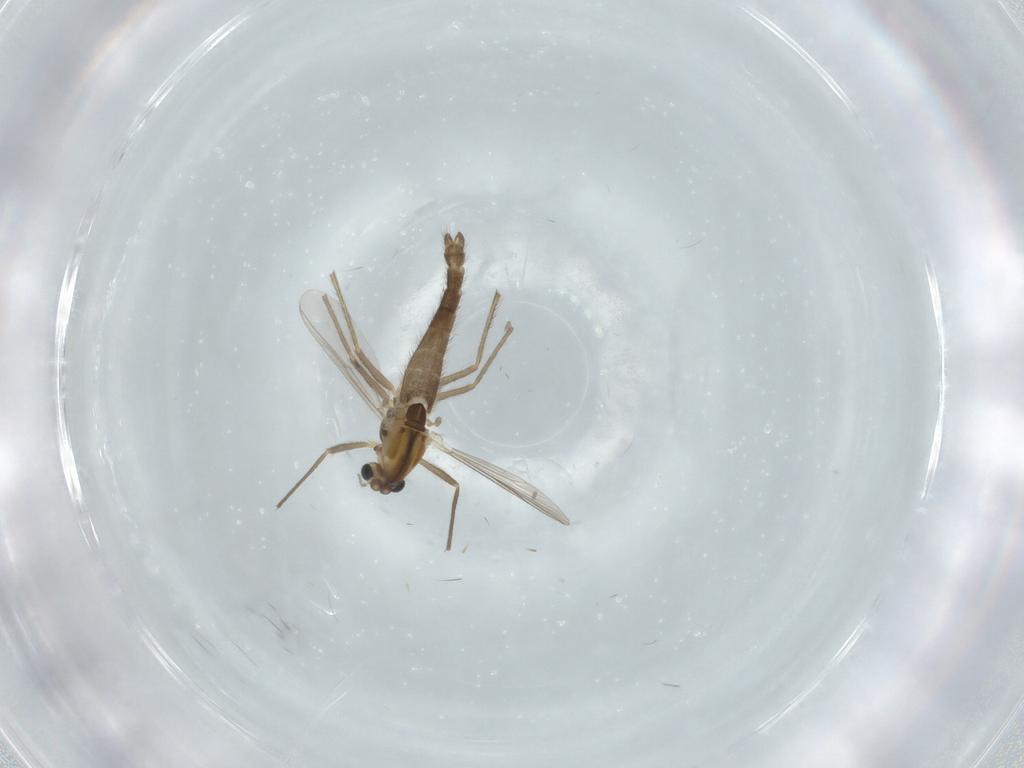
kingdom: Animalia
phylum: Arthropoda
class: Insecta
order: Diptera
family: Chironomidae
